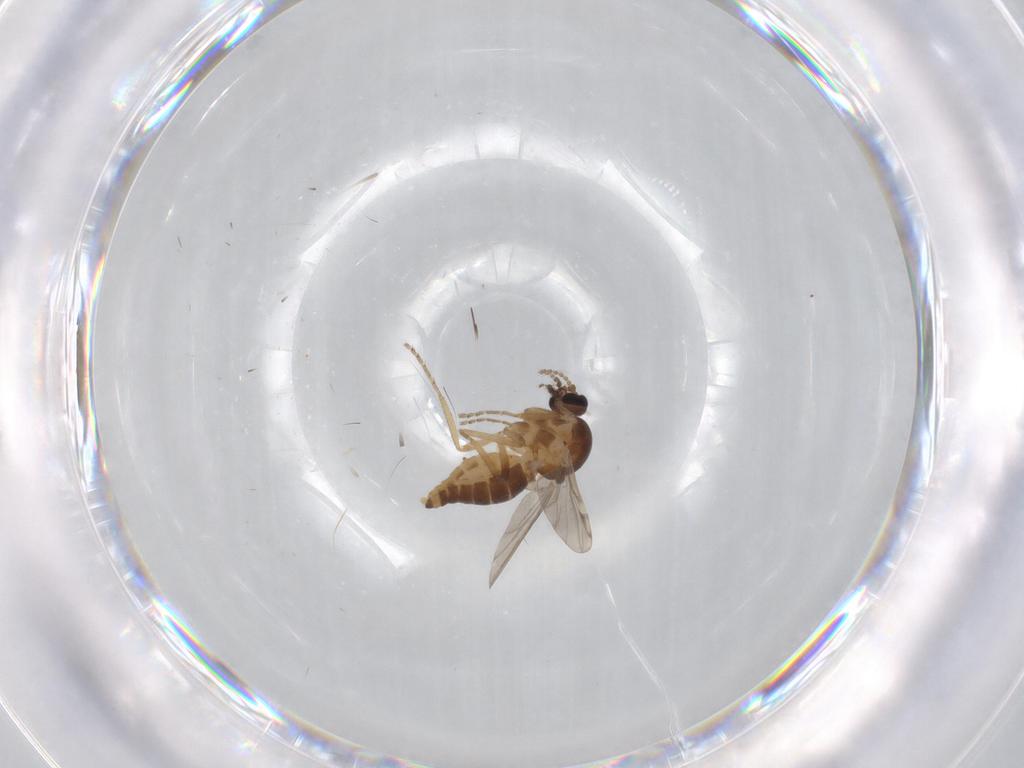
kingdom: Animalia
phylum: Arthropoda
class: Insecta
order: Diptera
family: Ceratopogonidae
